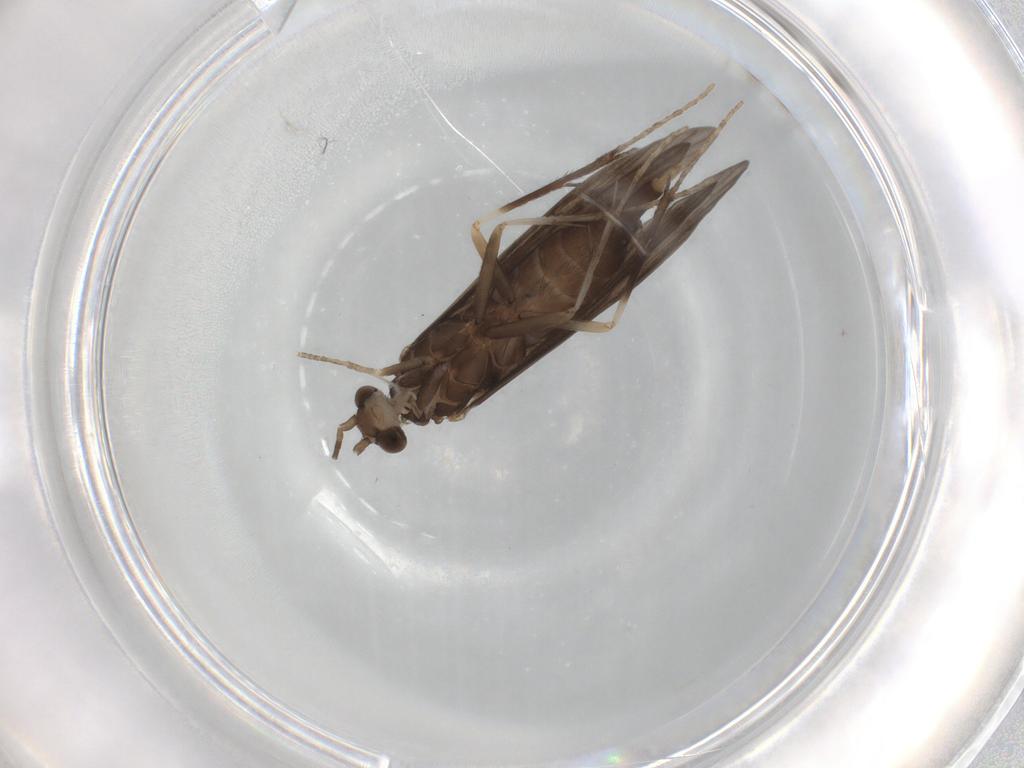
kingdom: Animalia
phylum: Arthropoda
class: Insecta
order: Trichoptera
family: Xiphocentronidae
